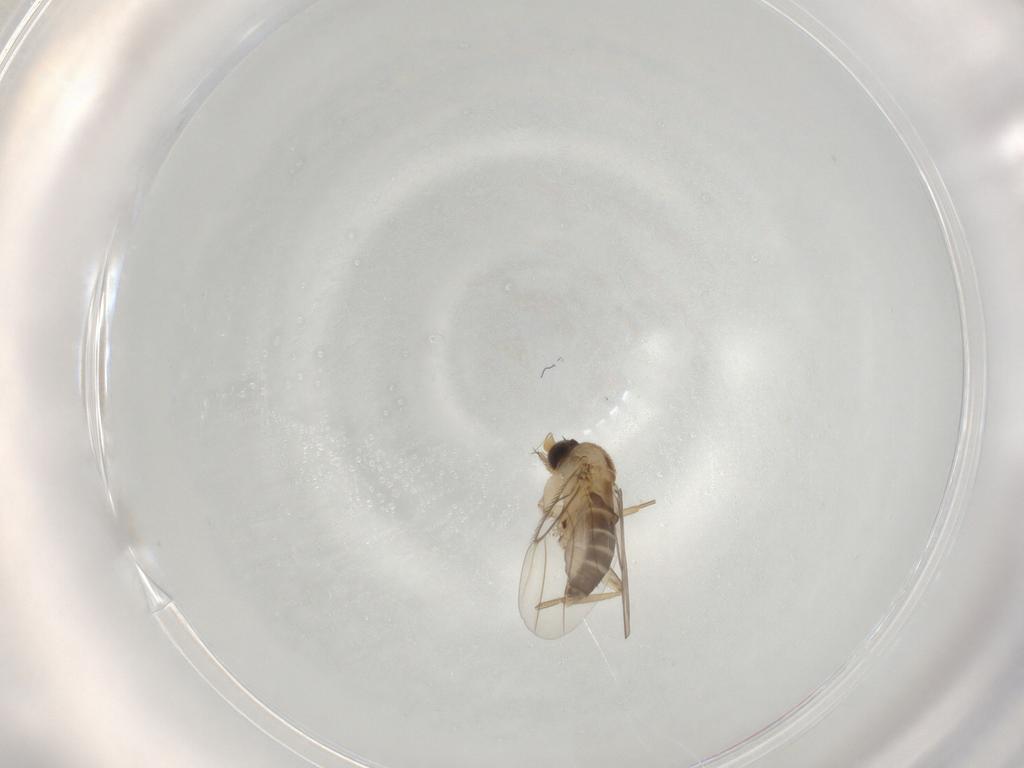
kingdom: Animalia
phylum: Arthropoda
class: Insecta
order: Diptera
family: Phoridae
